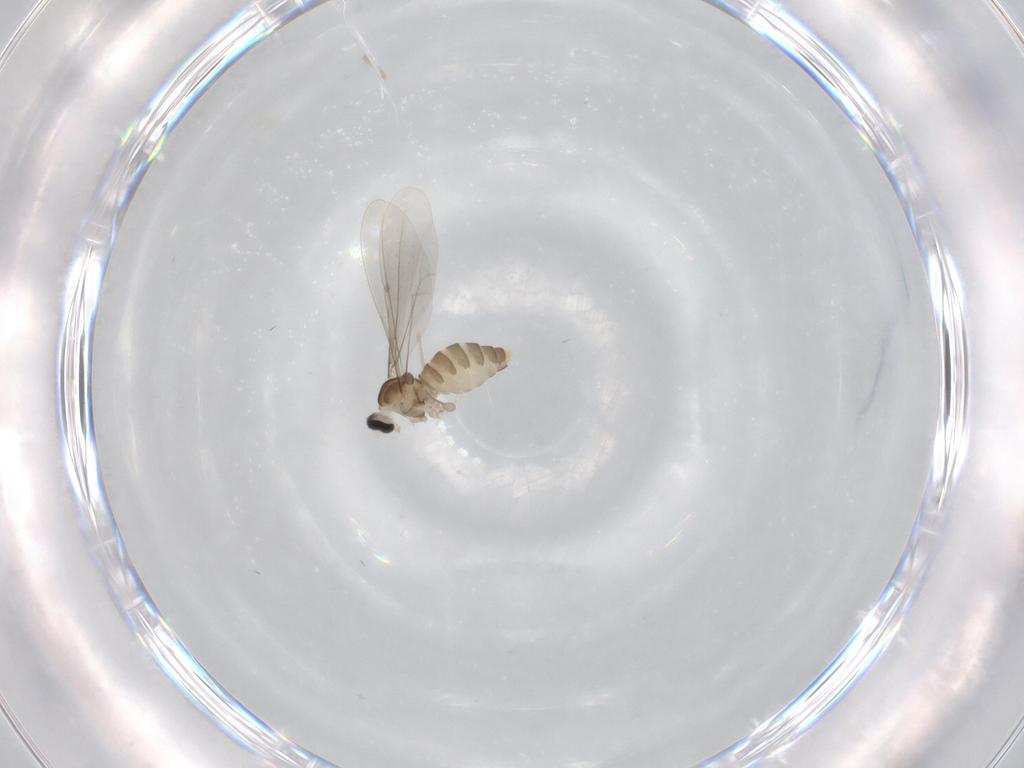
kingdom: Animalia
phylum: Arthropoda
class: Insecta
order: Diptera
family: Cecidomyiidae
